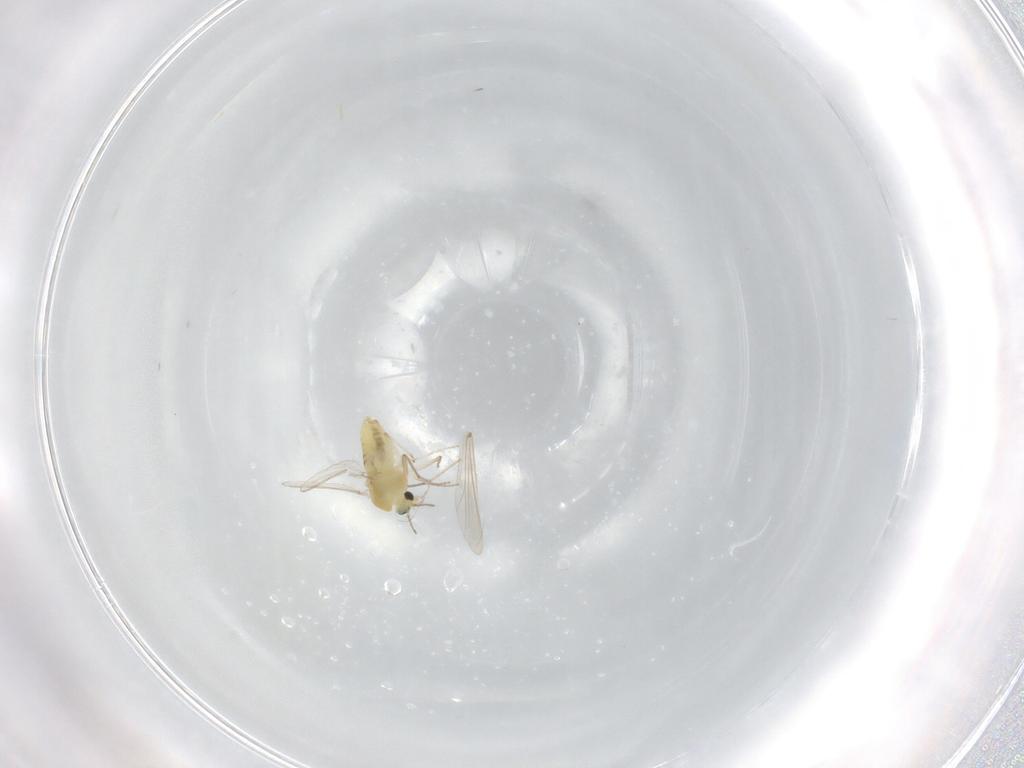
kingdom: Animalia
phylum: Arthropoda
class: Insecta
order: Diptera
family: Chironomidae
